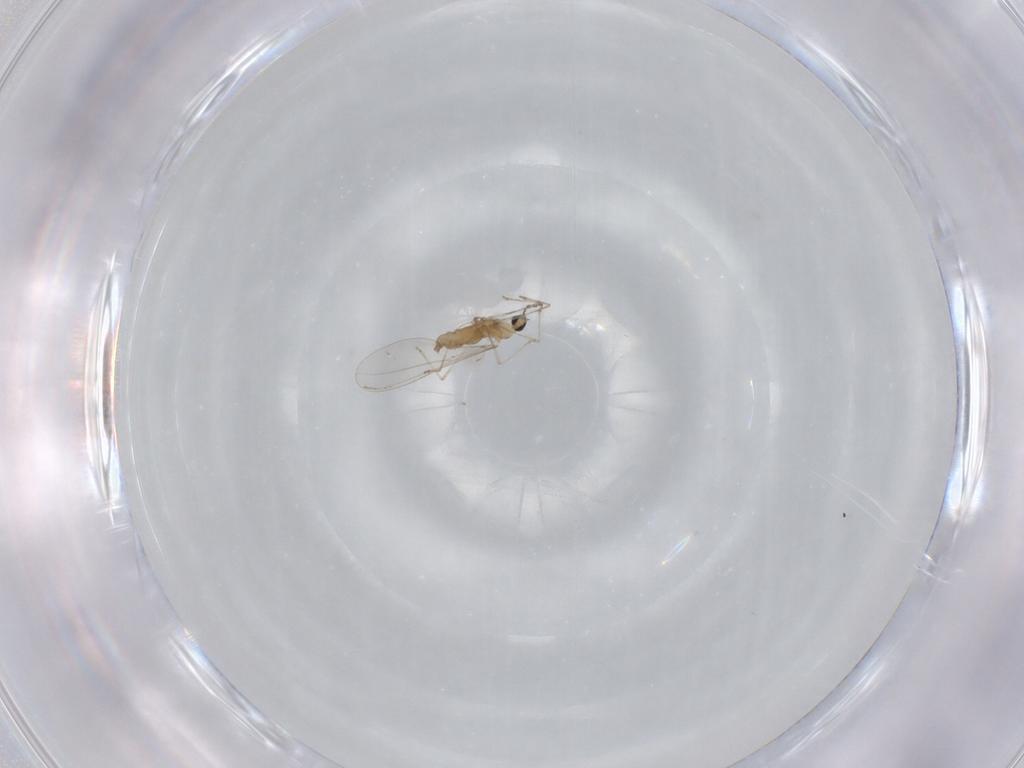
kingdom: Animalia
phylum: Arthropoda
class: Insecta
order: Diptera
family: Cecidomyiidae
